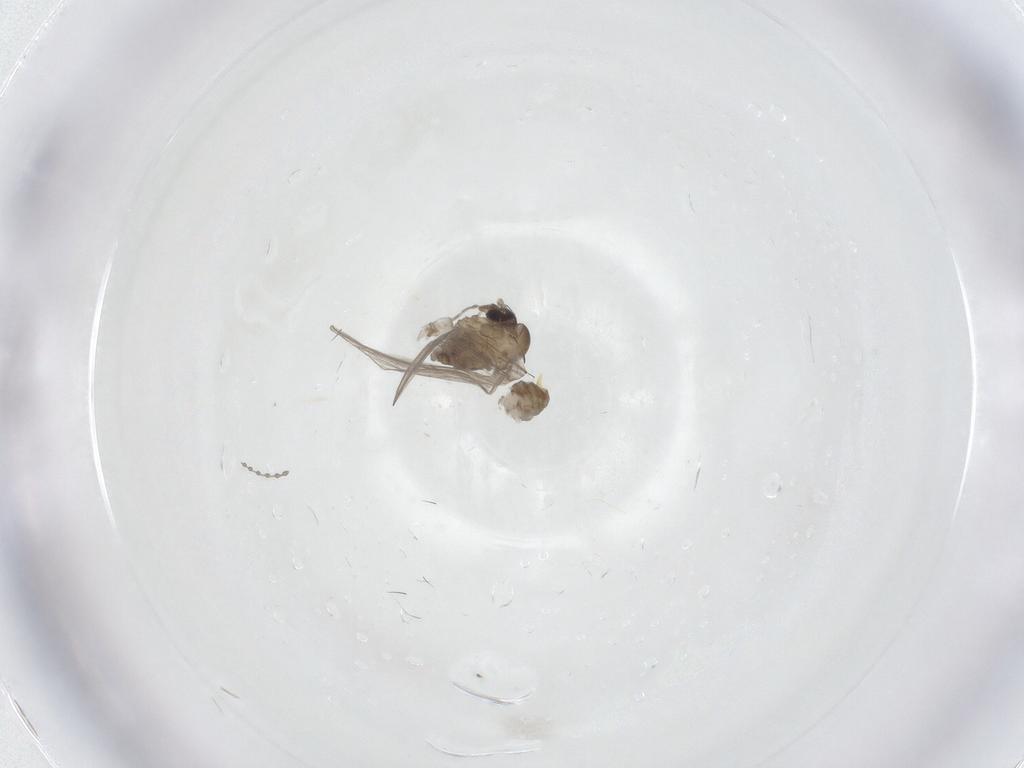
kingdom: Animalia
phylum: Arthropoda
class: Insecta
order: Diptera
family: Psychodidae
